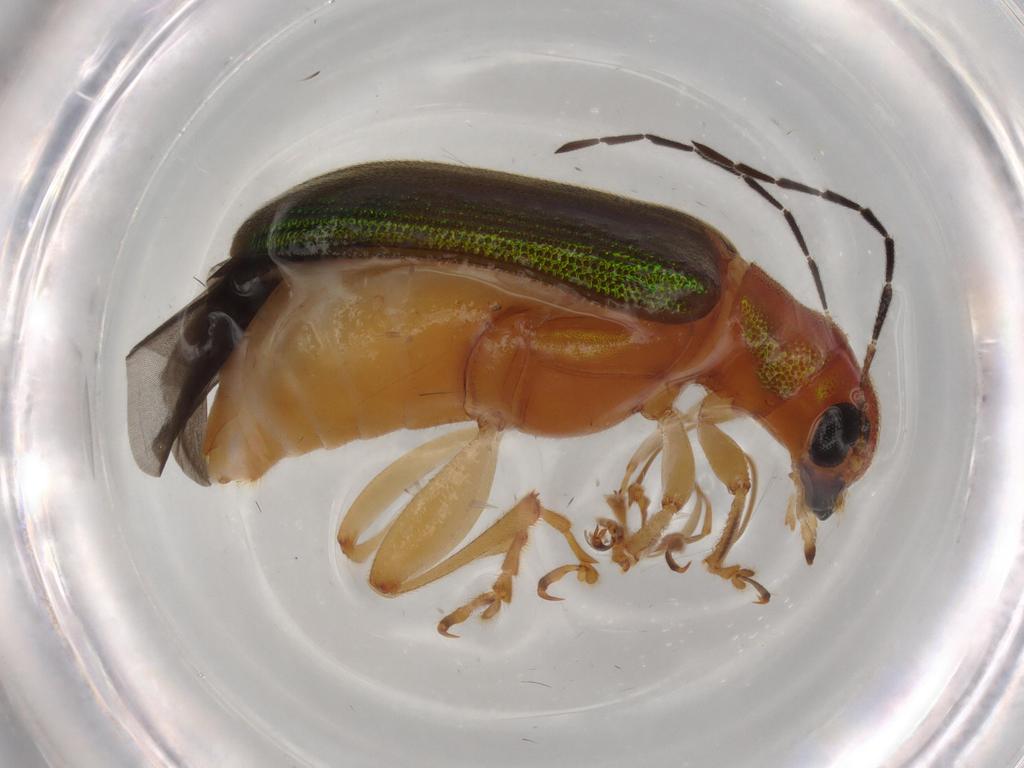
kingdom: Animalia
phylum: Arthropoda
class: Insecta
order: Coleoptera
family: Chrysomelidae
